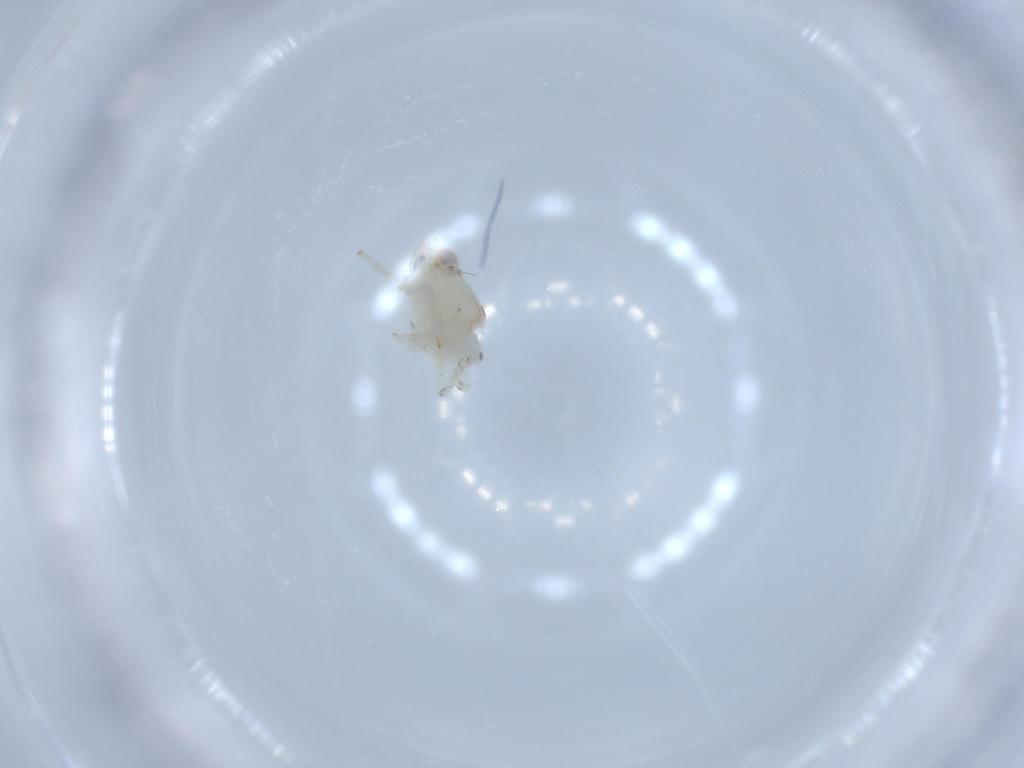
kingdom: Animalia
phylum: Arthropoda
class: Insecta
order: Hemiptera
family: Nogodinidae
